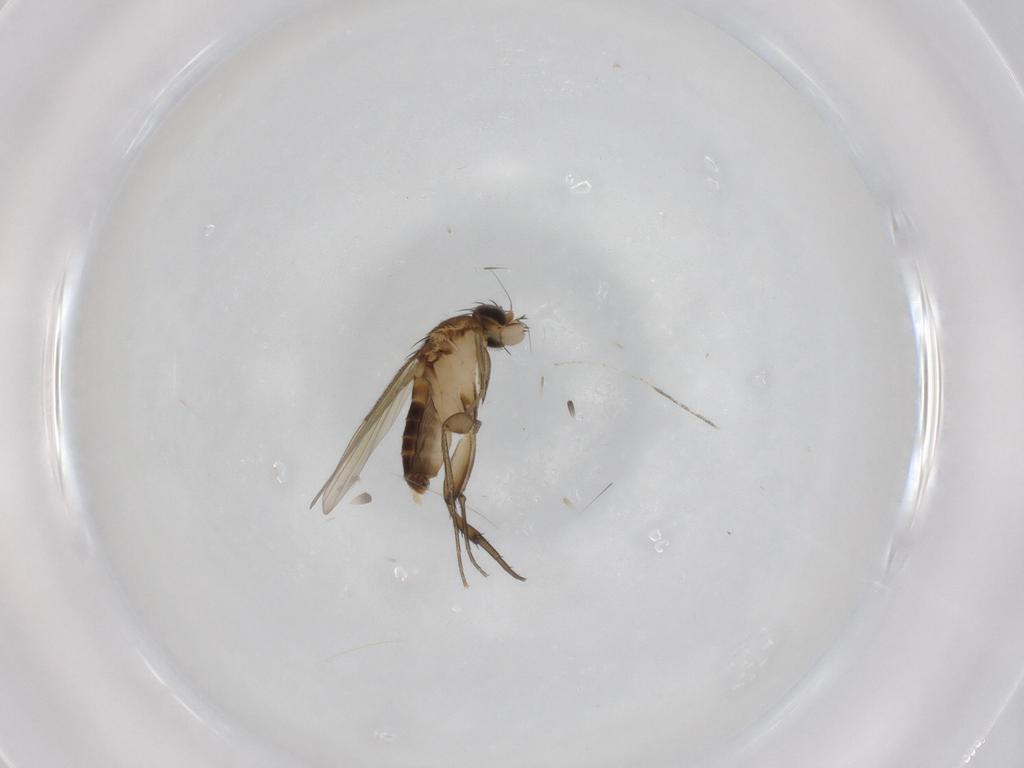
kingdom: Animalia
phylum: Arthropoda
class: Insecta
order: Diptera
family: Phoridae
